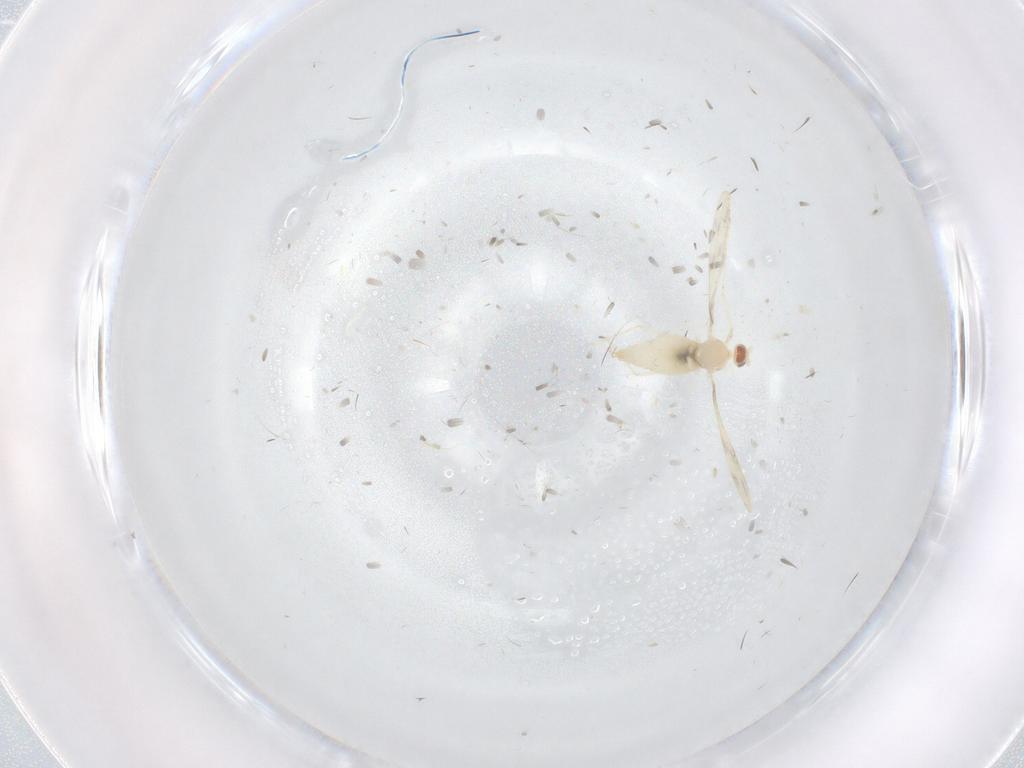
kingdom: Animalia
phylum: Arthropoda
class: Insecta
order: Diptera
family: Cecidomyiidae
